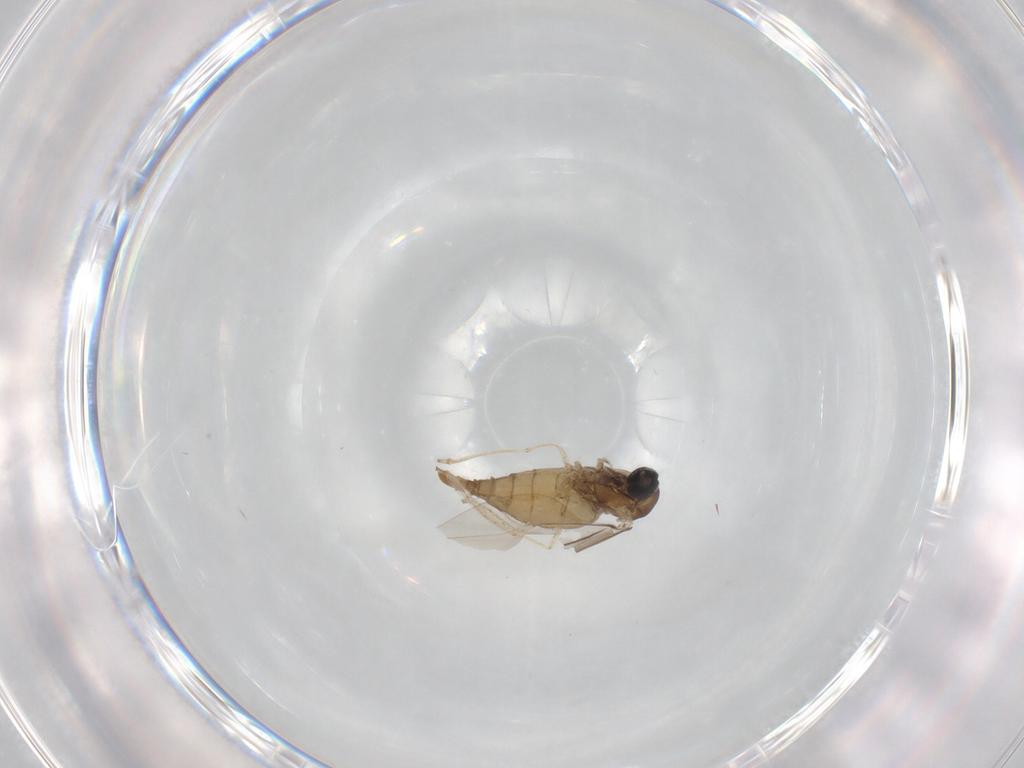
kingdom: Animalia
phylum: Arthropoda
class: Insecta
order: Diptera
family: Cecidomyiidae
